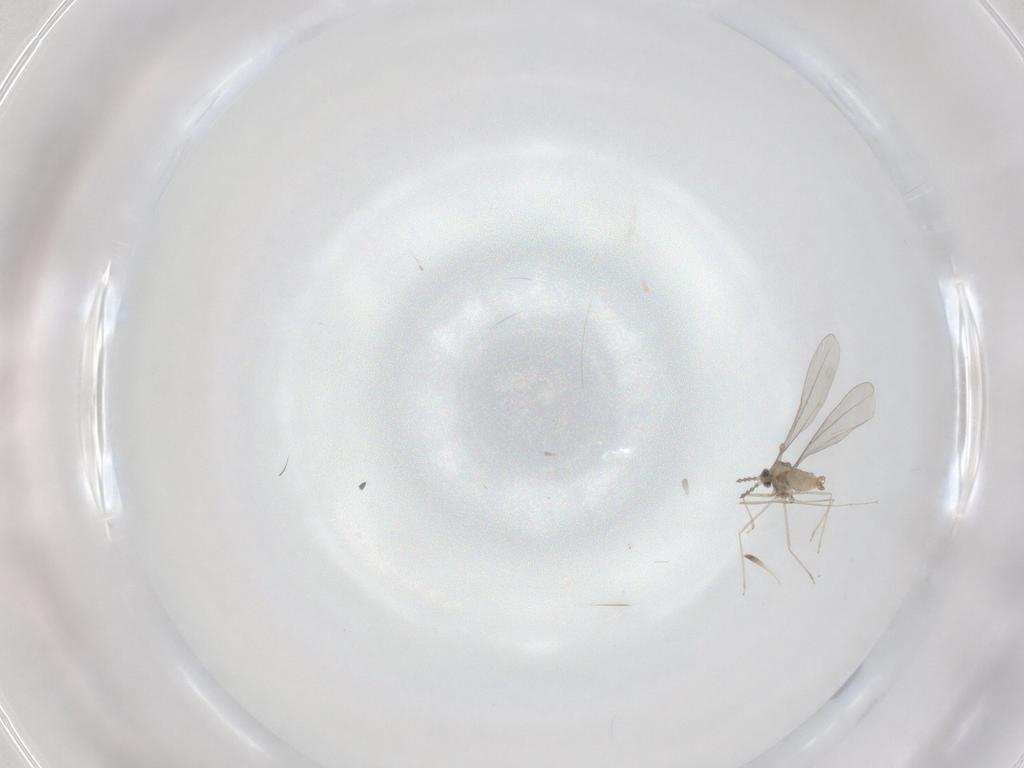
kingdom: Animalia
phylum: Arthropoda
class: Insecta
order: Diptera
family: Cecidomyiidae
